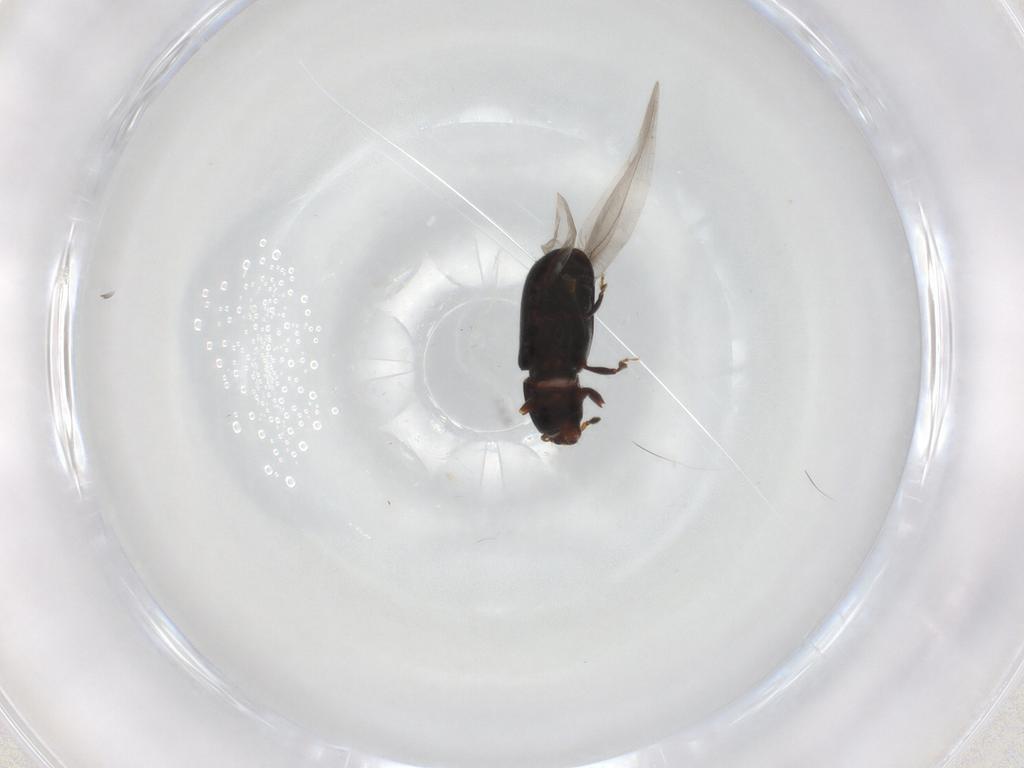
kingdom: Animalia
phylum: Arthropoda
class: Insecta
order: Coleoptera
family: Curculionidae
